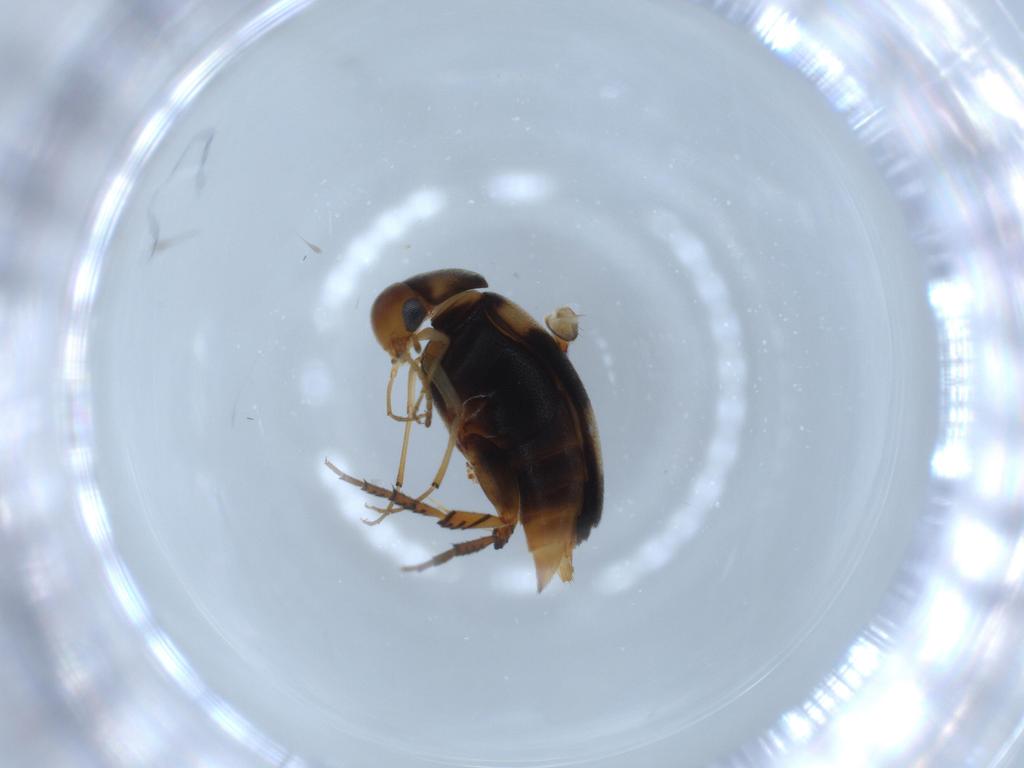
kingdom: Animalia
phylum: Arthropoda
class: Insecta
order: Coleoptera
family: Mordellidae
